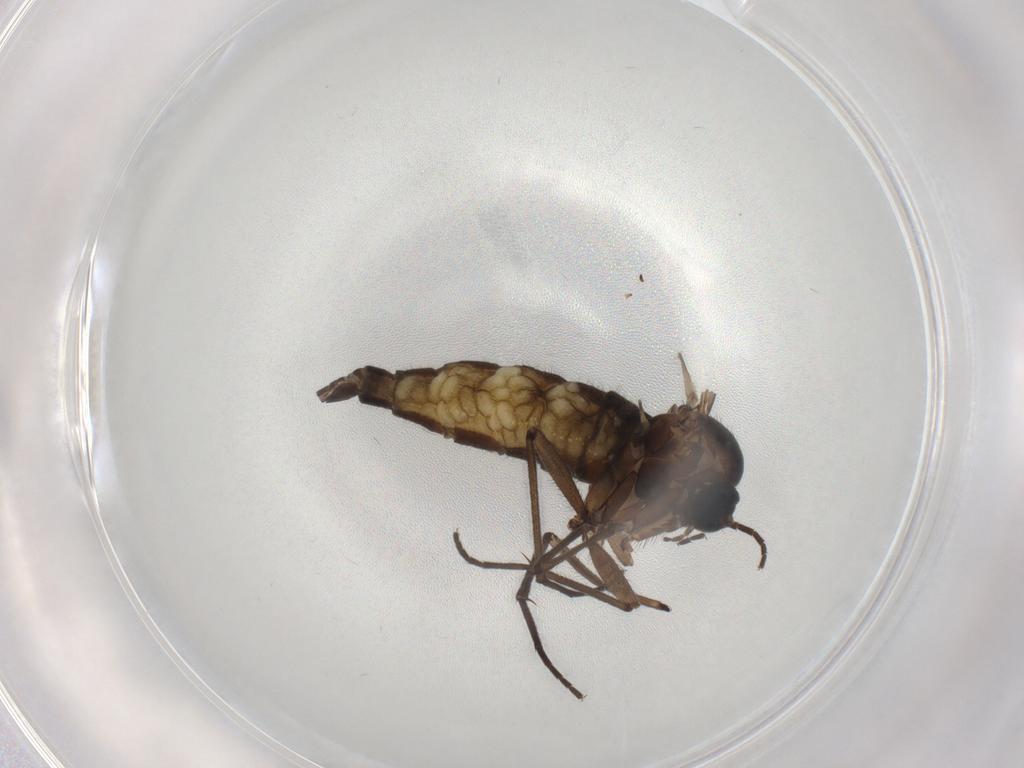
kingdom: Animalia
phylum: Arthropoda
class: Insecta
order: Diptera
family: Sciaridae
